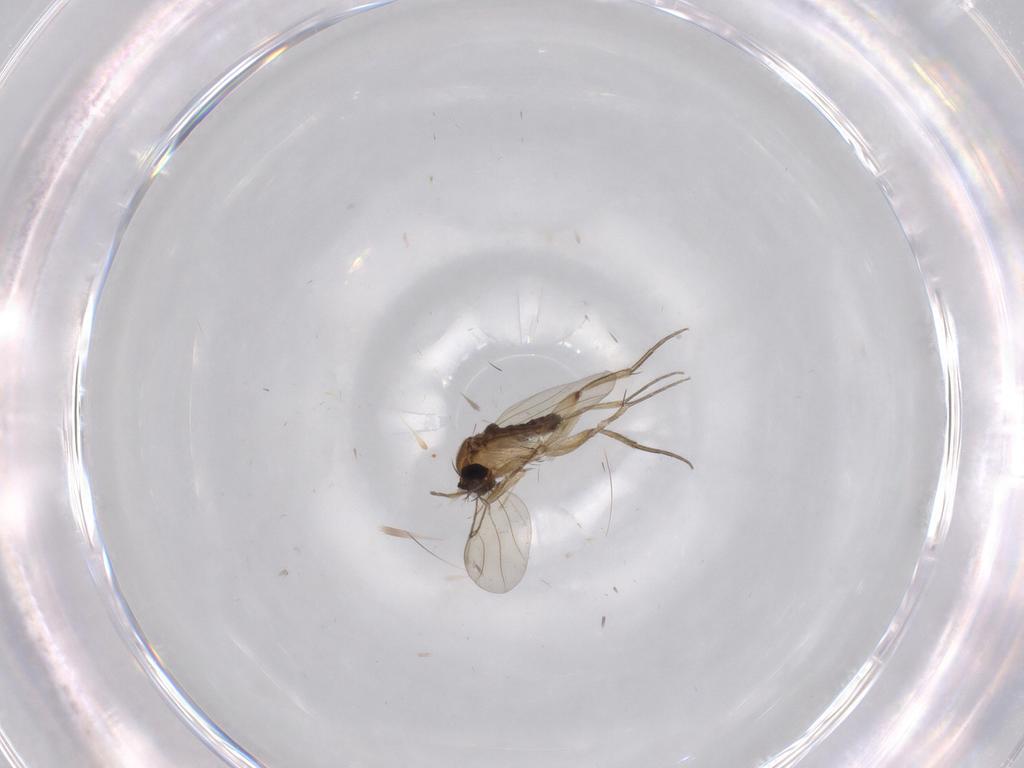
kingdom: Animalia
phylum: Arthropoda
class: Insecta
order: Diptera
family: Phoridae
